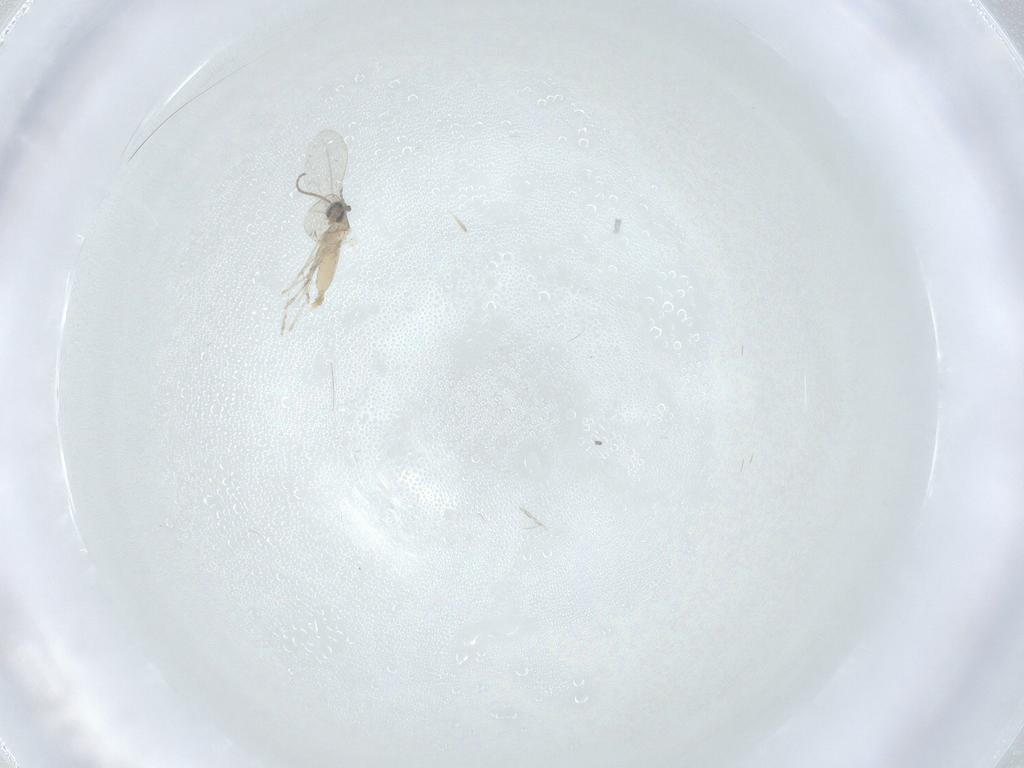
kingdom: Animalia
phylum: Arthropoda
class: Insecta
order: Diptera
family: Cecidomyiidae
